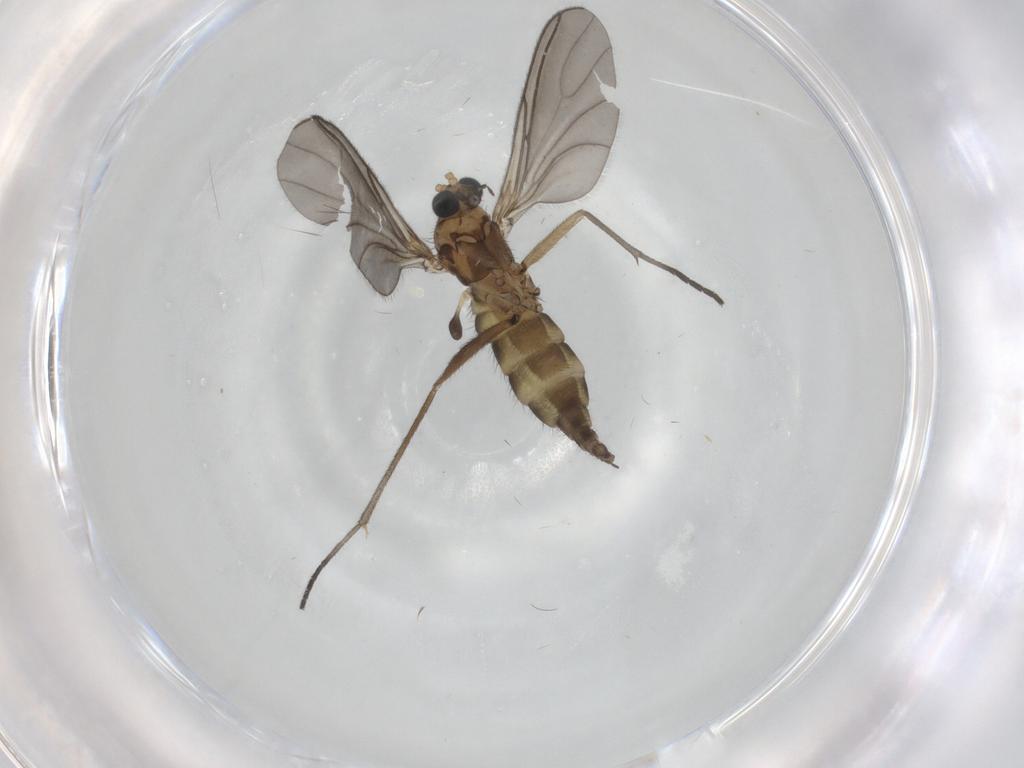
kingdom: Animalia
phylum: Arthropoda
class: Insecta
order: Diptera
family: Sciaridae
